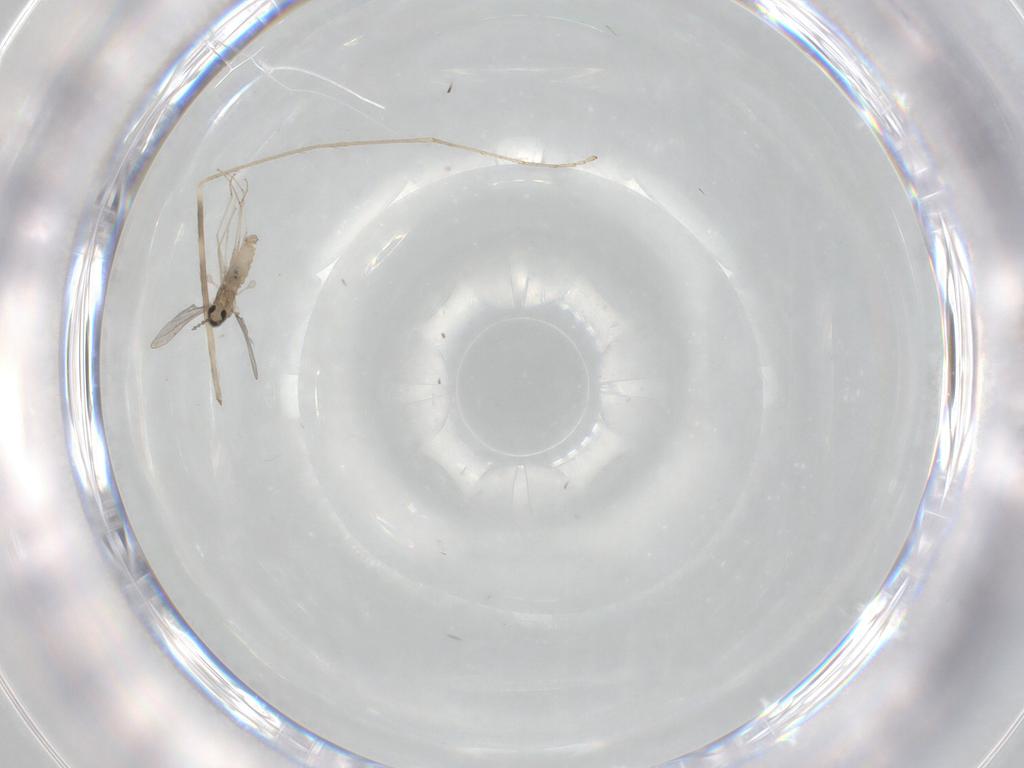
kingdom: Animalia
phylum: Arthropoda
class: Insecta
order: Diptera
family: Cecidomyiidae
